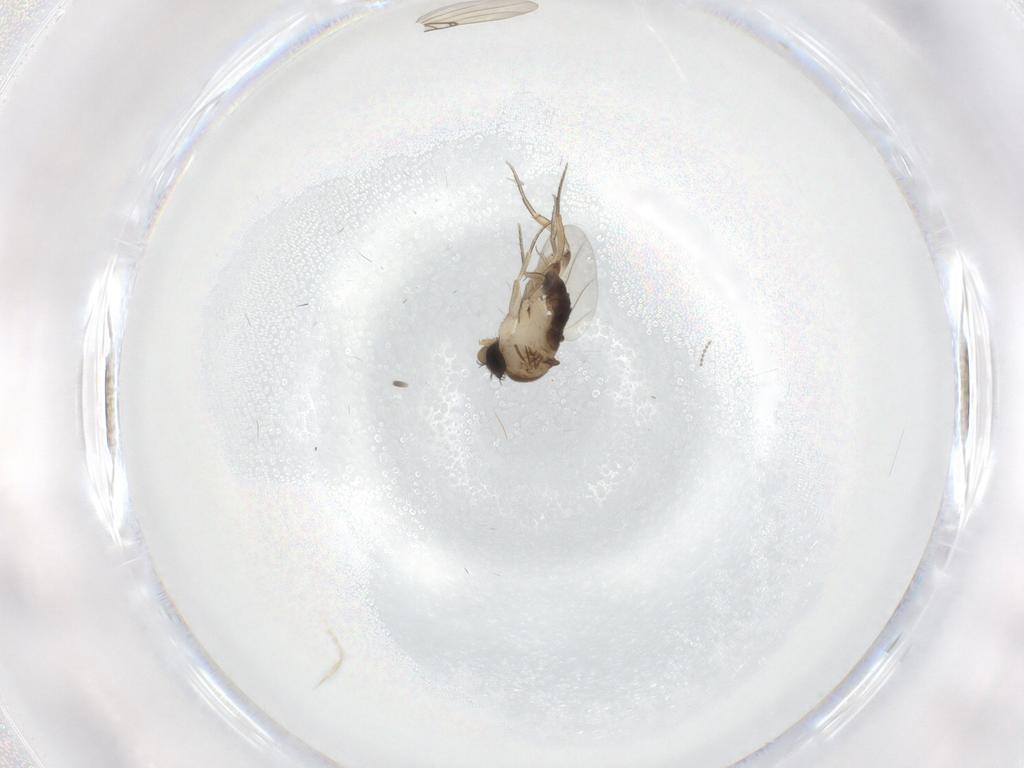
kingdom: Animalia
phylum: Arthropoda
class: Insecta
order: Diptera
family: Phoridae
